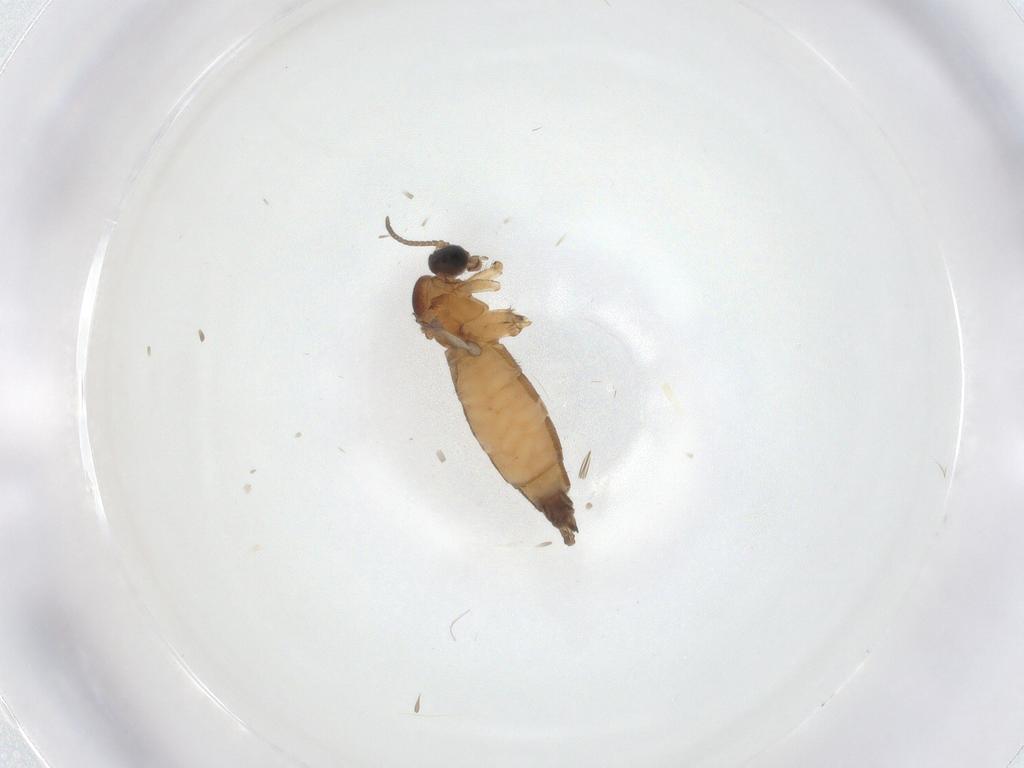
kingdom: Animalia
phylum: Arthropoda
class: Insecta
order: Diptera
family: Sciaridae
